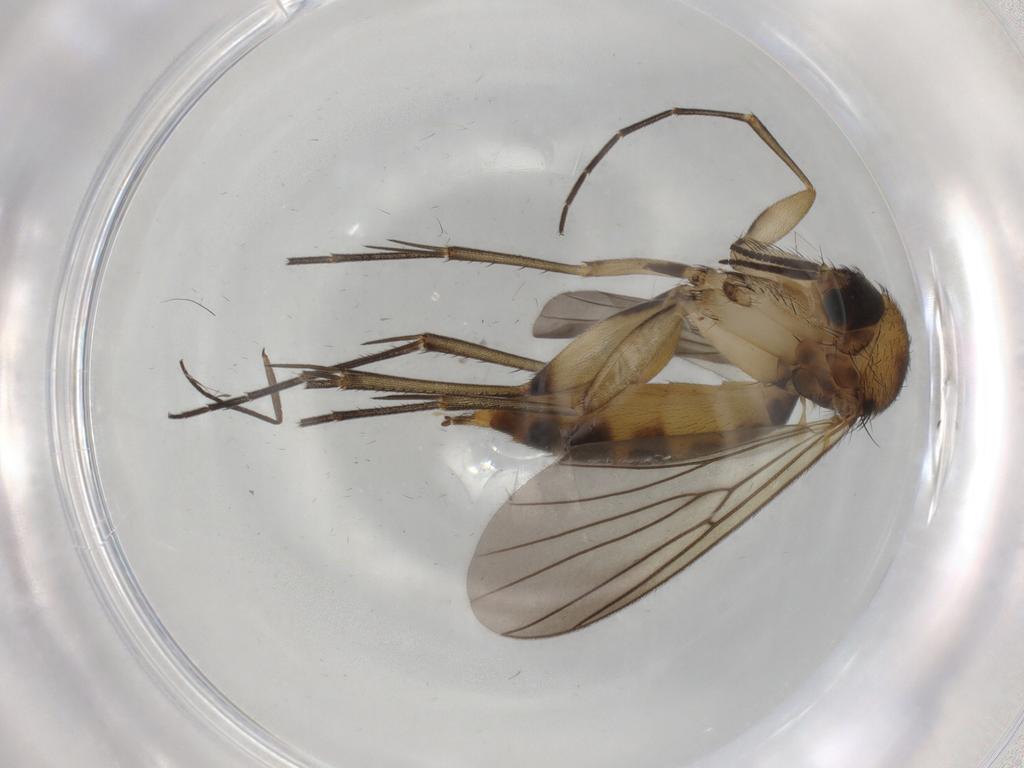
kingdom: Animalia
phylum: Arthropoda
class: Insecta
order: Diptera
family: Mycetophilidae
